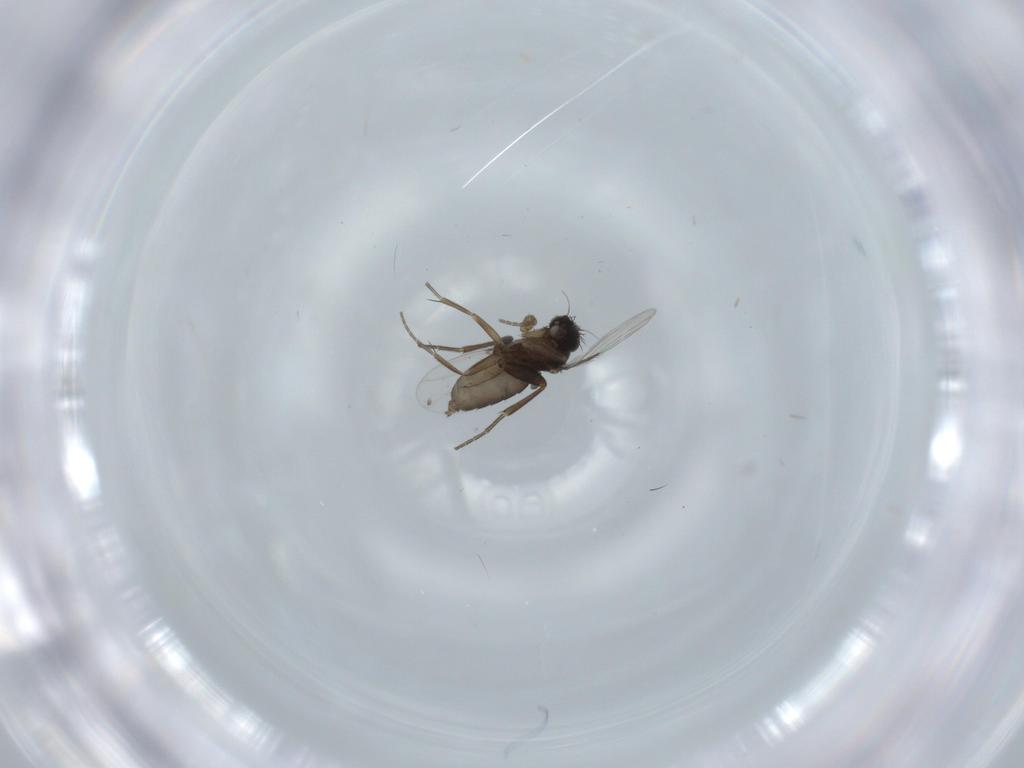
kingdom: Animalia
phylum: Arthropoda
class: Insecta
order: Diptera
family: Phoridae
